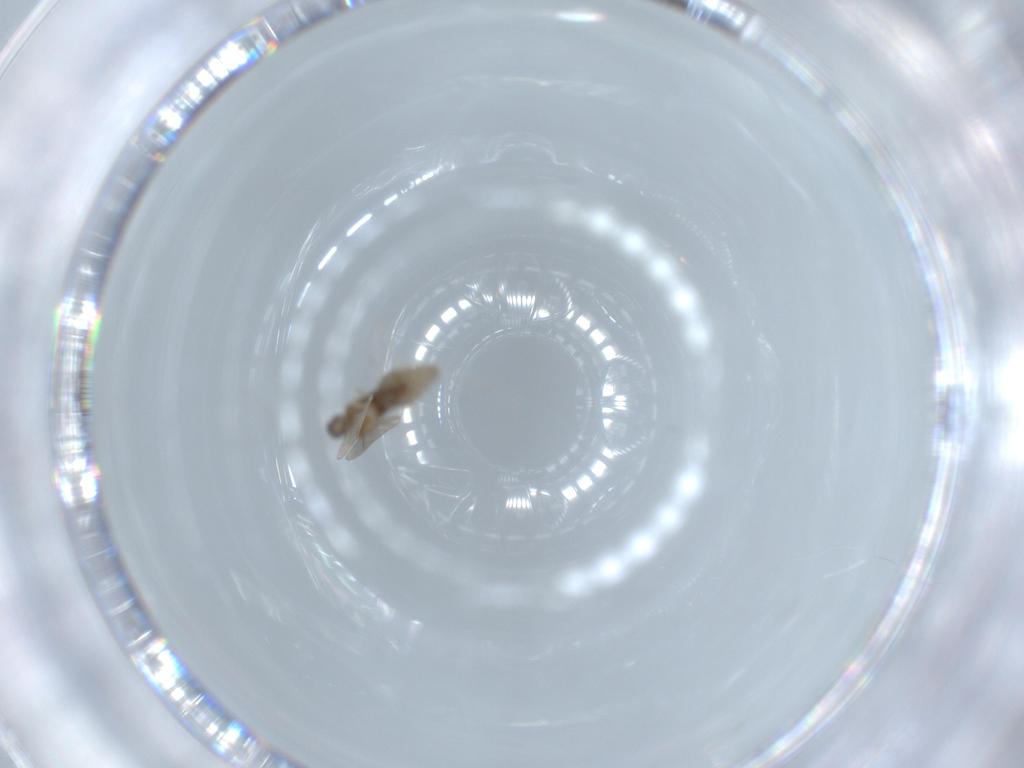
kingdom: Animalia
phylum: Arthropoda
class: Insecta
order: Diptera
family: Cecidomyiidae
